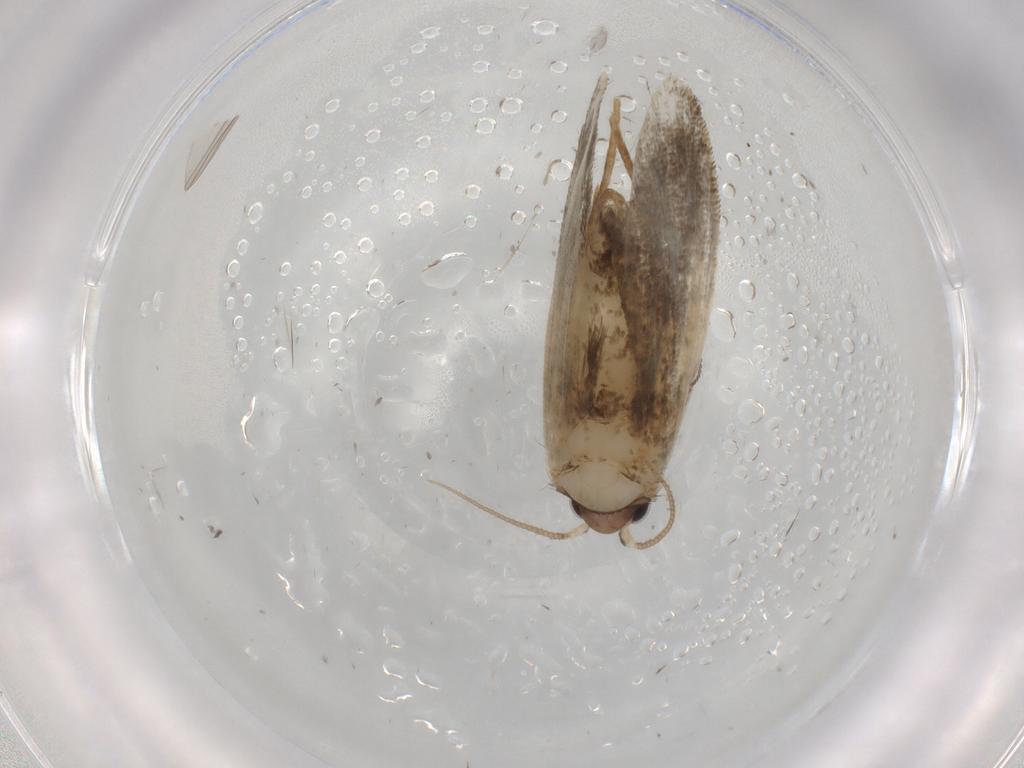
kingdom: Animalia
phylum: Arthropoda
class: Insecta
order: Lepidoptera
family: Psychidae
